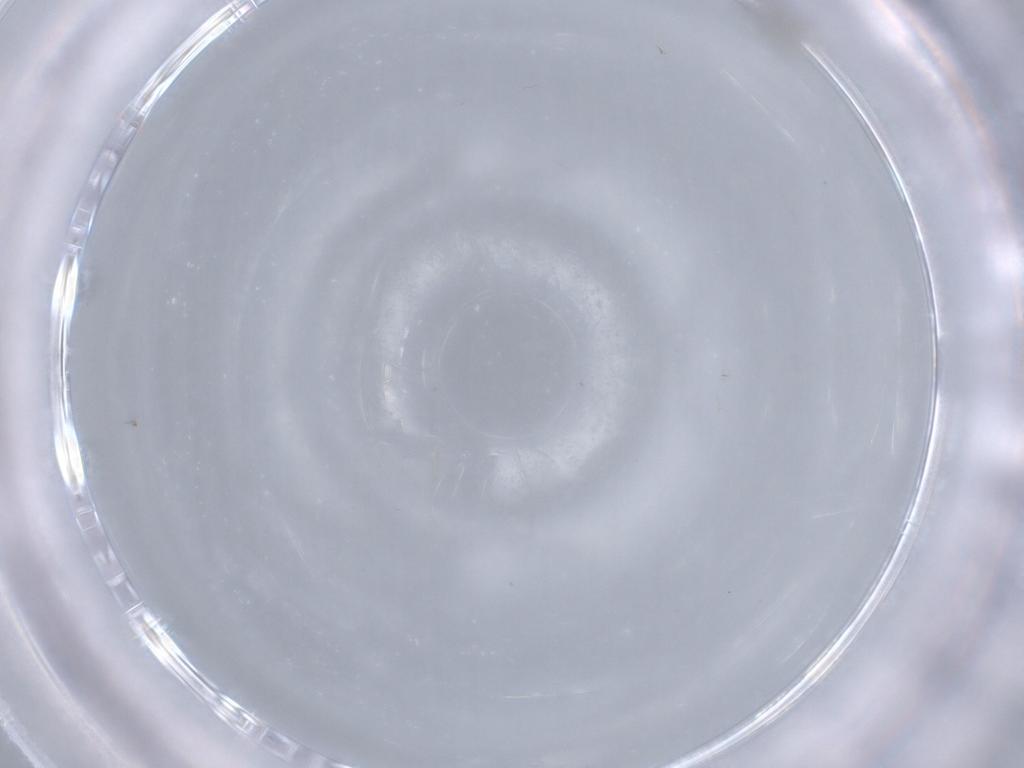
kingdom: Animalia
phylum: Arthropoda
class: Insecta
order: Diptera
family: Cecidomyiidae
